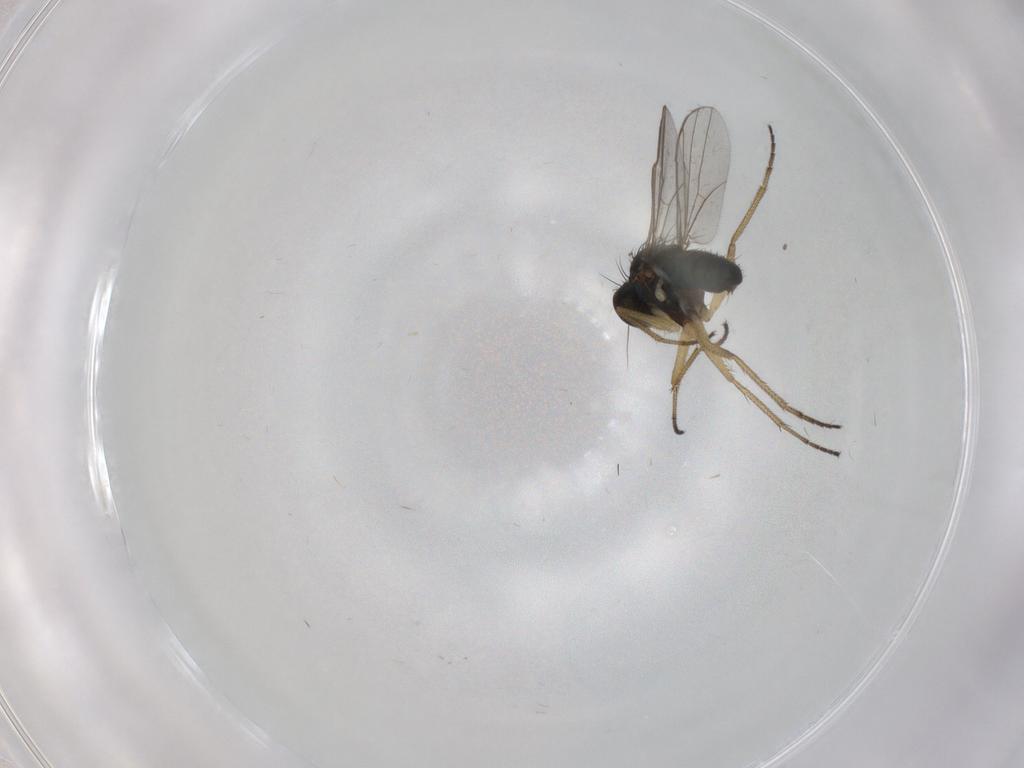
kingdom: Animalia
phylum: Arthropoda
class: Insecta
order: Diptera
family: Dolichopodidae
